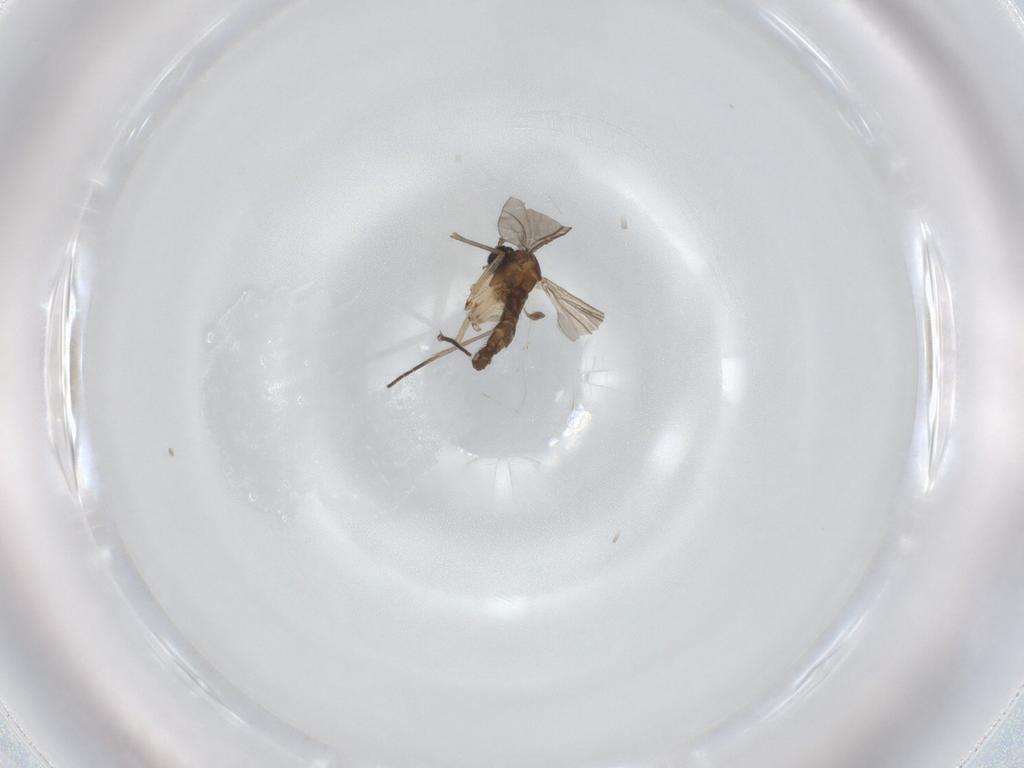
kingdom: Animalia
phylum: Arthropoda
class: Insecta
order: Diptera
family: Sciaridae
